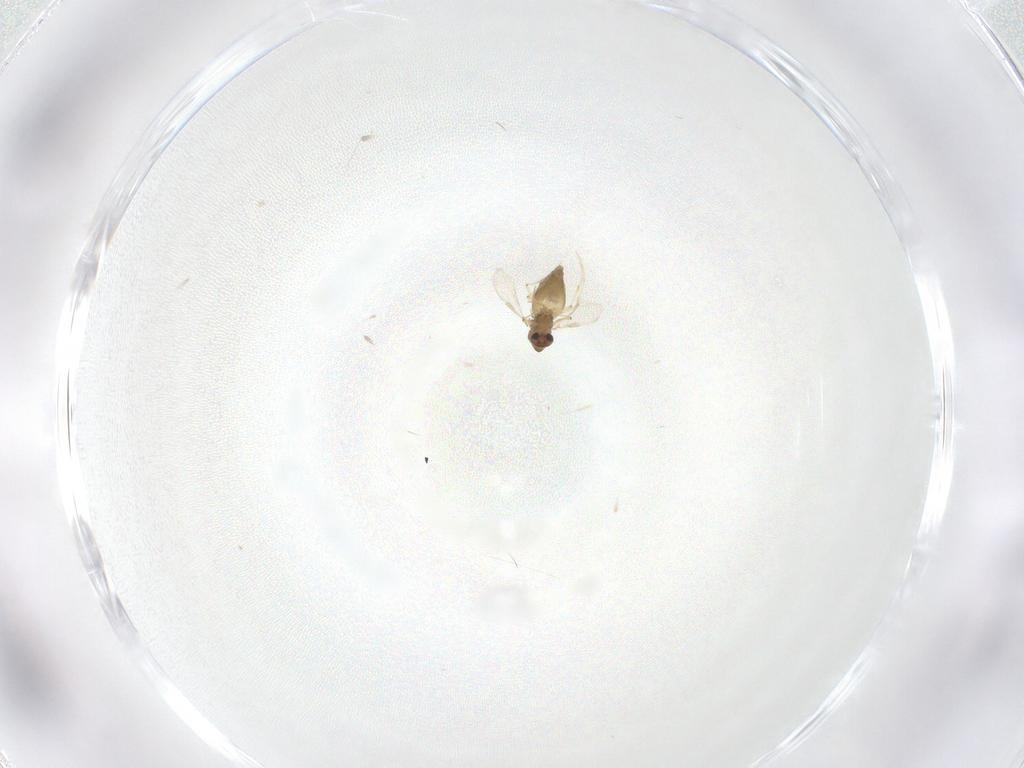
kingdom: Animalia
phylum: Arthropoda
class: Insecta
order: Diptera
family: Chironomidae
